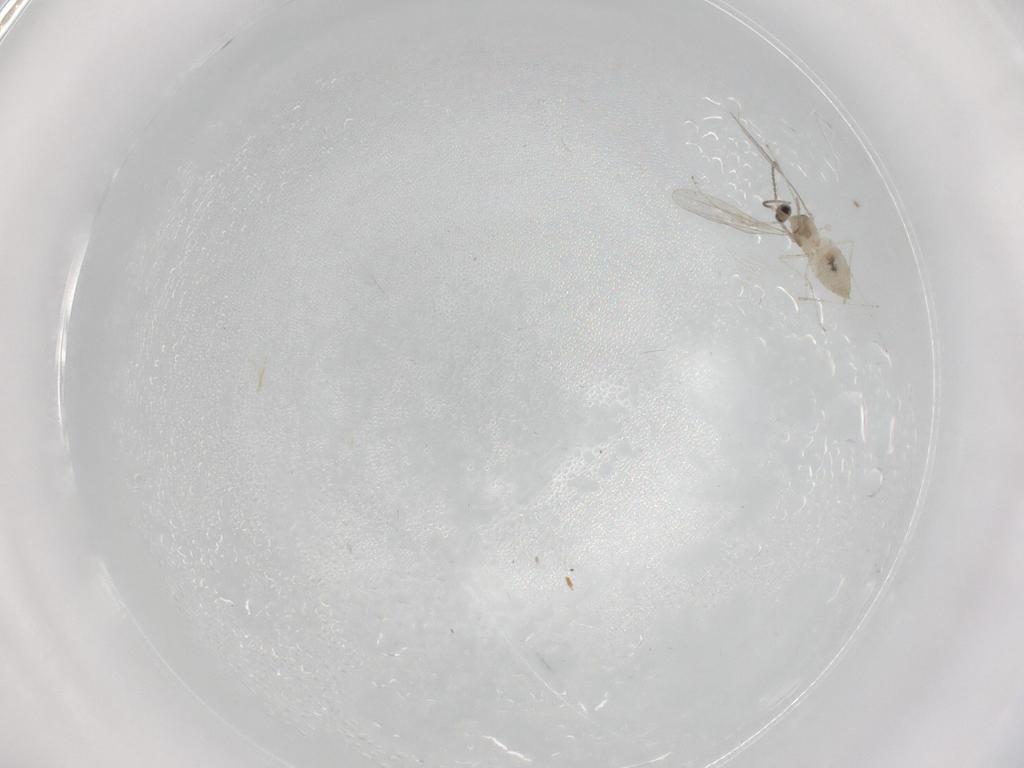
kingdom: Animalia
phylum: Arthropoda
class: Insecta
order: Diptera
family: Cecidomyiidae
